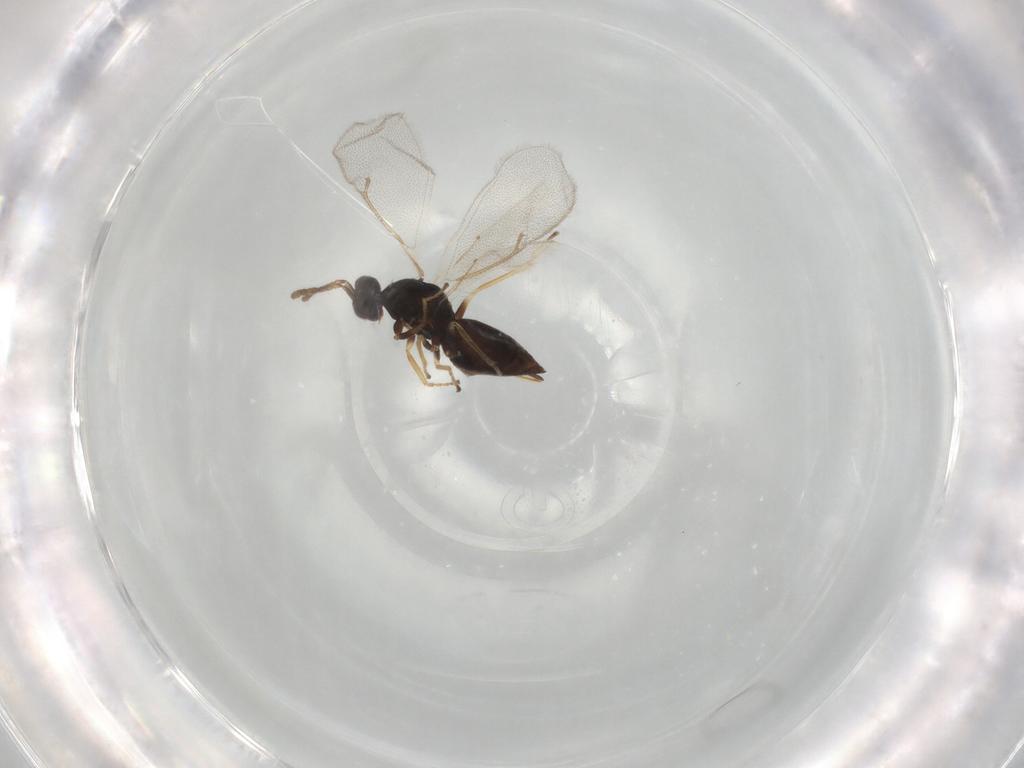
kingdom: Animalia
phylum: Arthropoda
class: Insecta
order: Hymenoptera
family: Eulophidae
